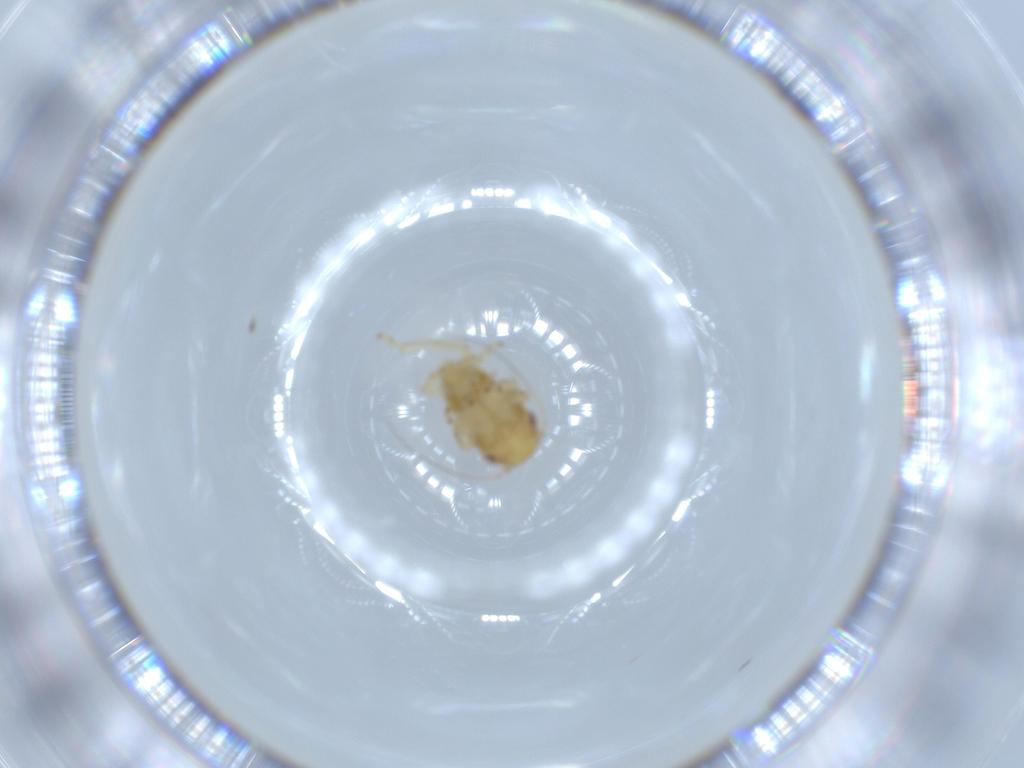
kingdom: Animalia
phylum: Arthropoda
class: Insecta
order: Hemiptera
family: Cicadellidae
